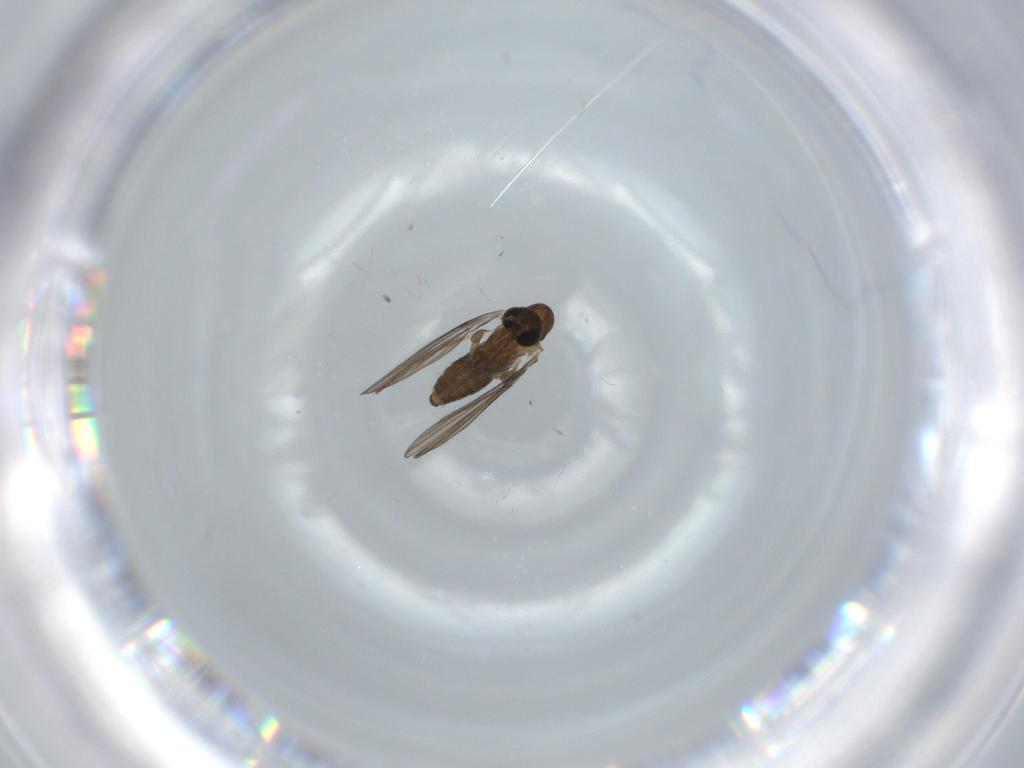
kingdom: Animalia
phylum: Arthropoda
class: Insecta
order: Diptera
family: Psychodidae
